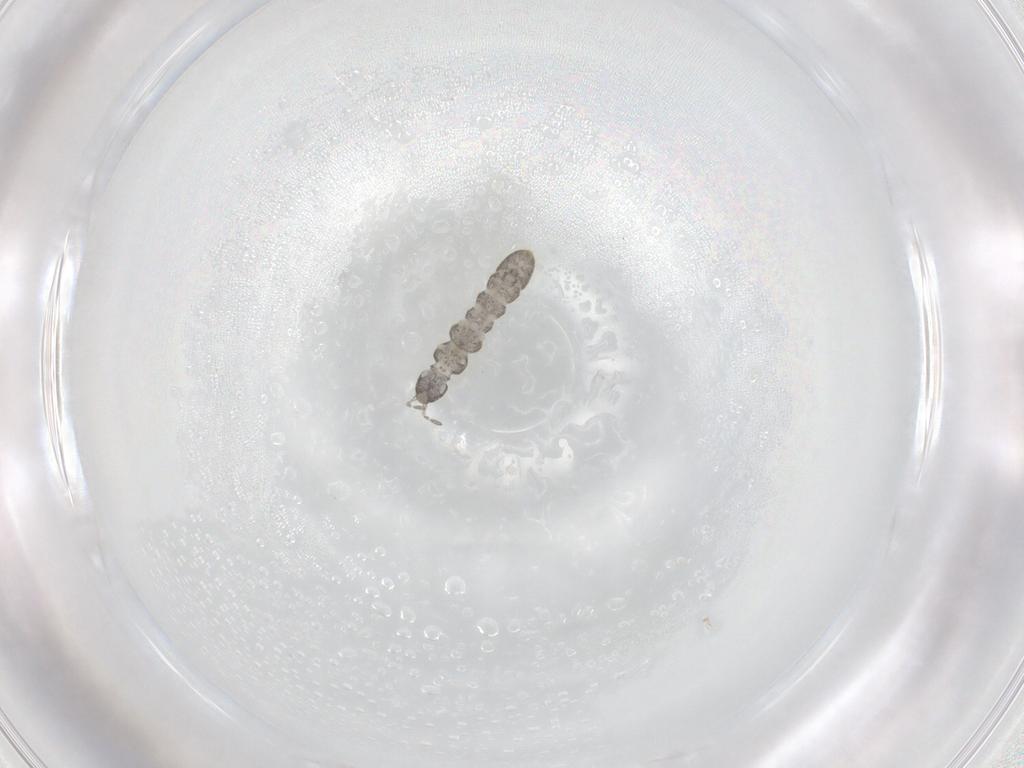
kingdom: Animalia
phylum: Arthropoda
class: Collembola
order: Entomobryomorpha
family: Isotomidae
